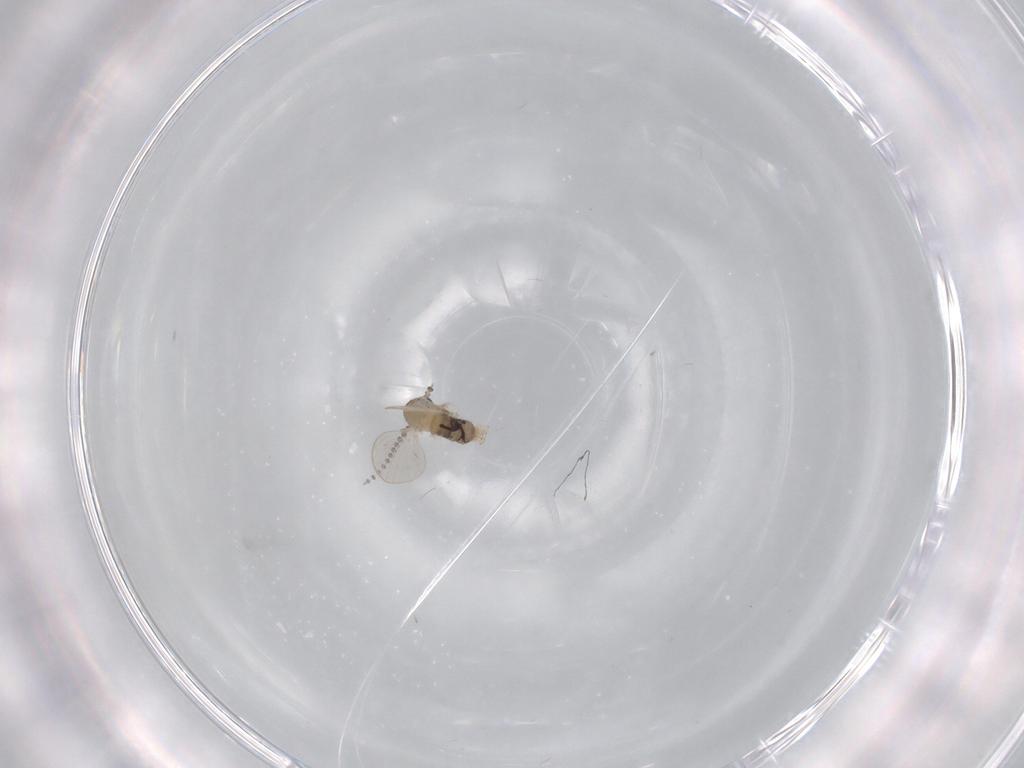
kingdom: Animalia
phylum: Arthropoda
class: Insecta
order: Diptera
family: Psychodidae
